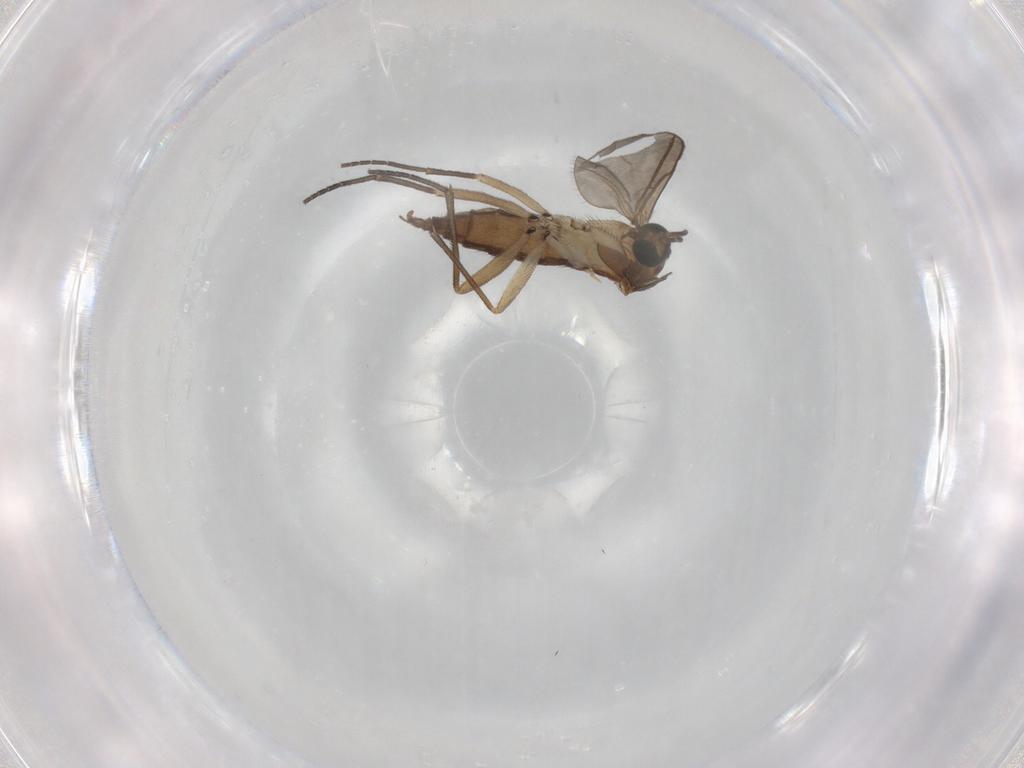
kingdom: Animalia
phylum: Arthropoda
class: Insecta
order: Diptera
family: Sciaridae
